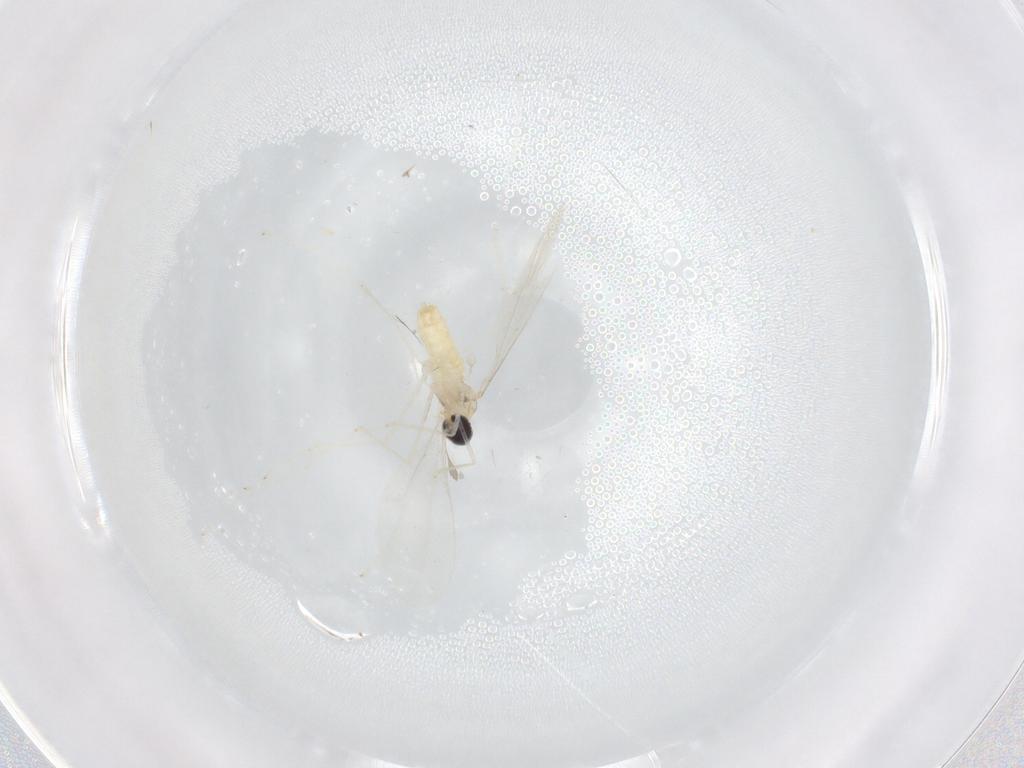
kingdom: Animalia
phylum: Arthropoda
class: Insecta
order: Diptera
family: Cecidomyiidae
